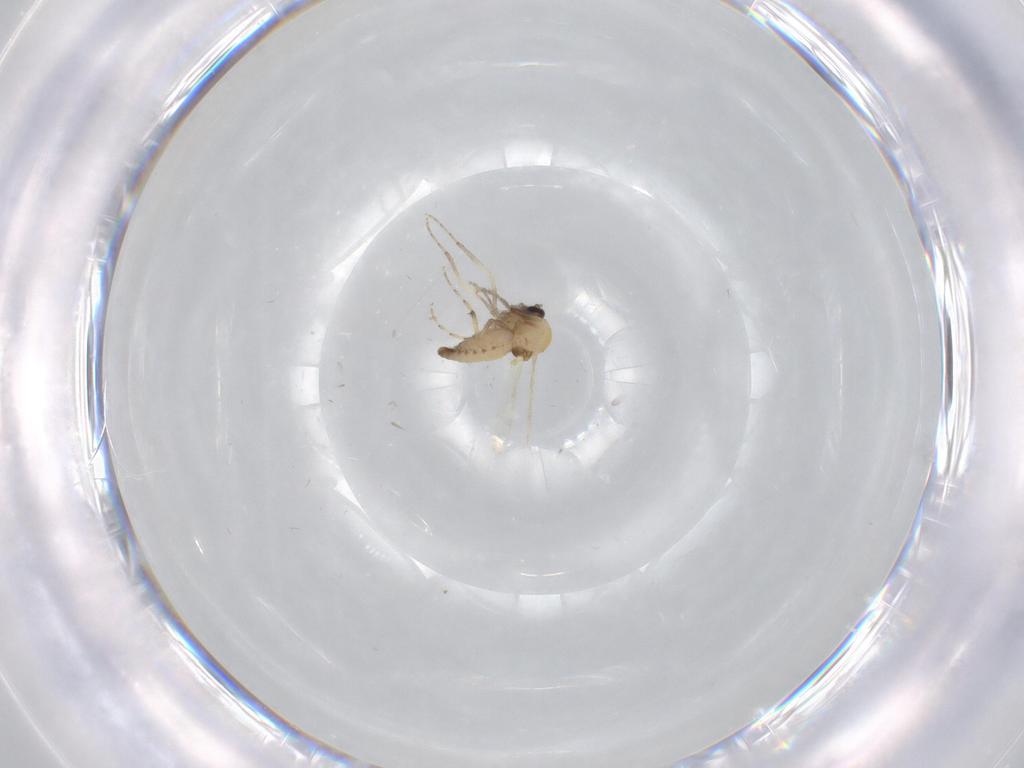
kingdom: Animalia
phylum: Arthropoda
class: Insecta
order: Diptera
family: Ceratopogonidae
